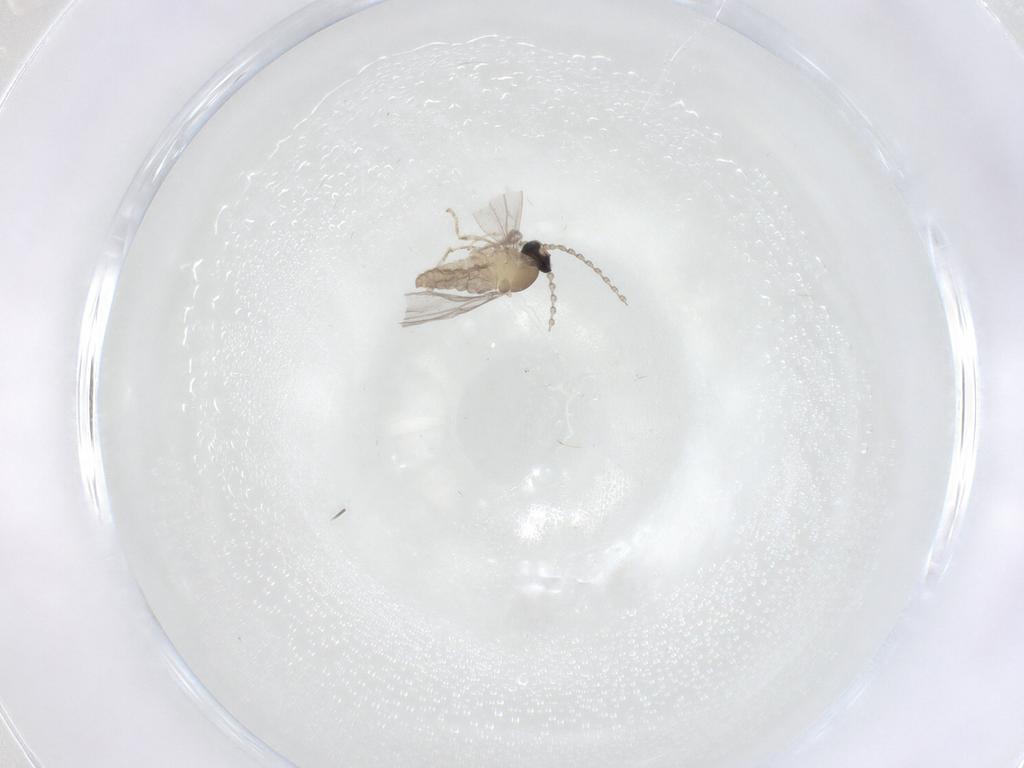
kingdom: Animalia
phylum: Arthropoda
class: Insecta
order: Diptera
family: Cecidomyiidae
